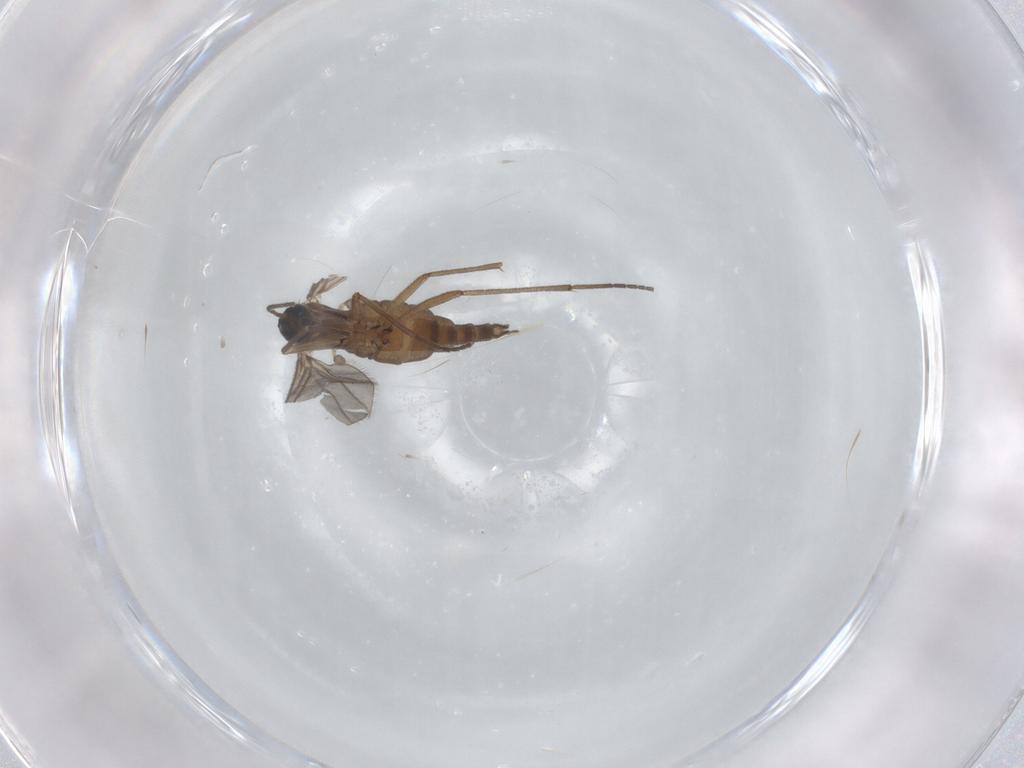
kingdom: Animalia
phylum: Arthropoda
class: Insecta
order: Diptera
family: Sciaridae
